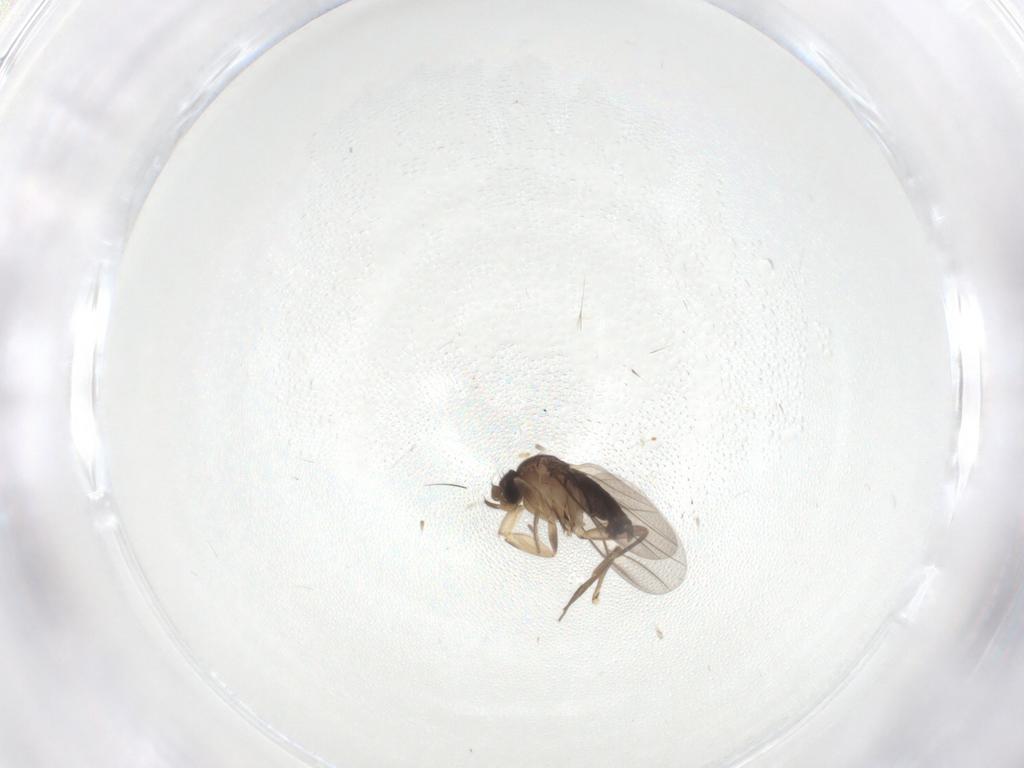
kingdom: Animalia
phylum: Arthropoda
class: Insecta
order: Diptera
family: Phoridae
